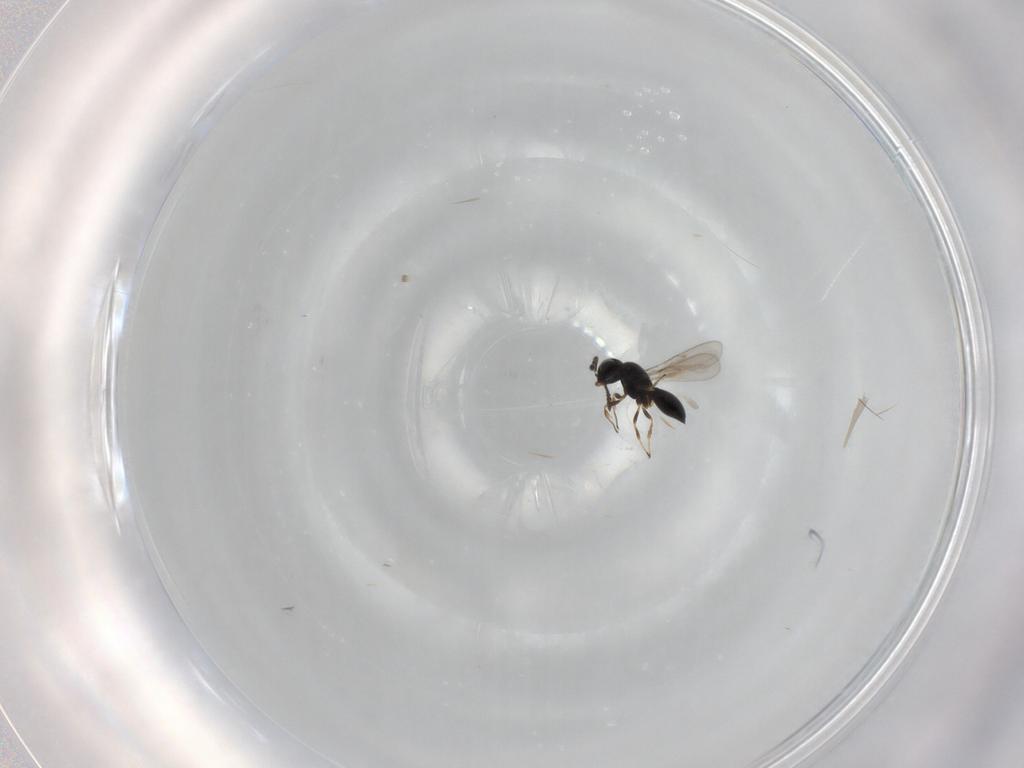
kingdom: Animalia
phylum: Arthropoda
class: Insecta
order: Hymenoptera
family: Scelionidae
